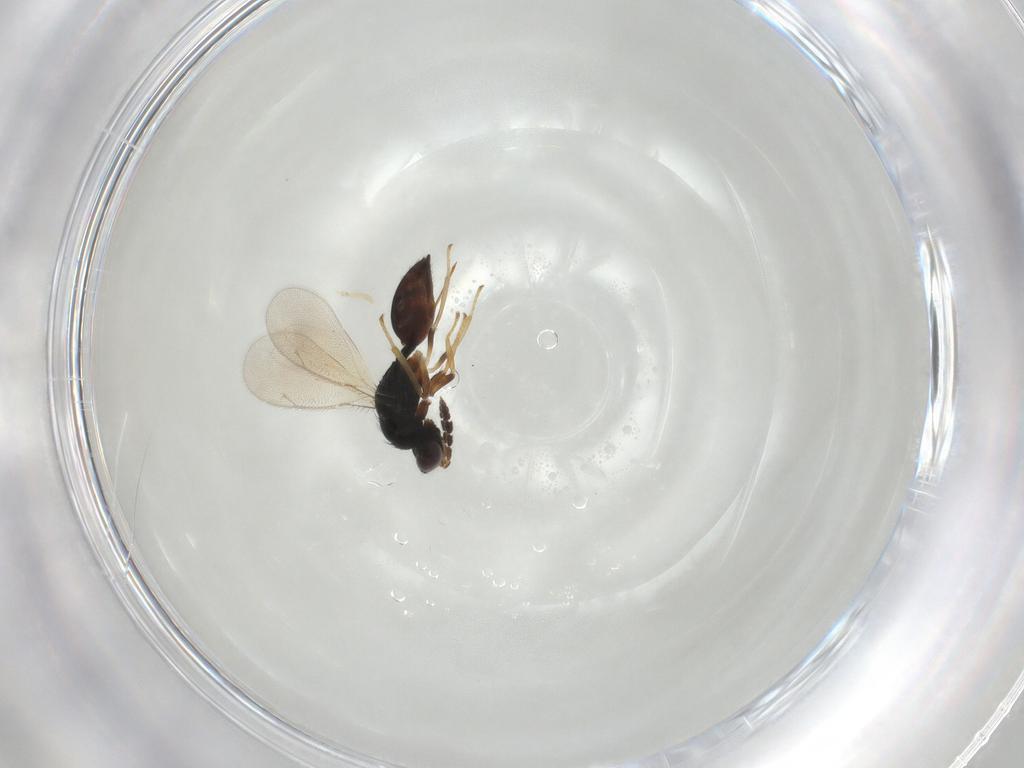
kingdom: Animalia
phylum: Arthropoda
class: Insecta
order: Hymenoptera
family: Eulophidae
